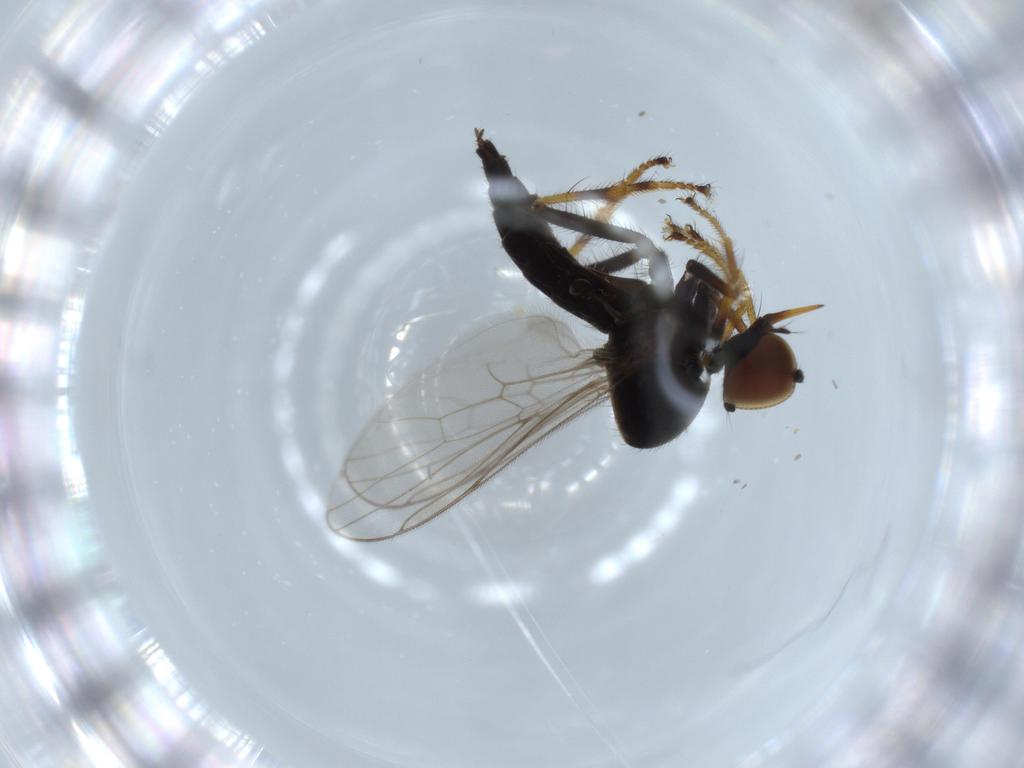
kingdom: Animalia
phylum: Arthropoda
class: Insecta
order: Diptera
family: Hybotidae
